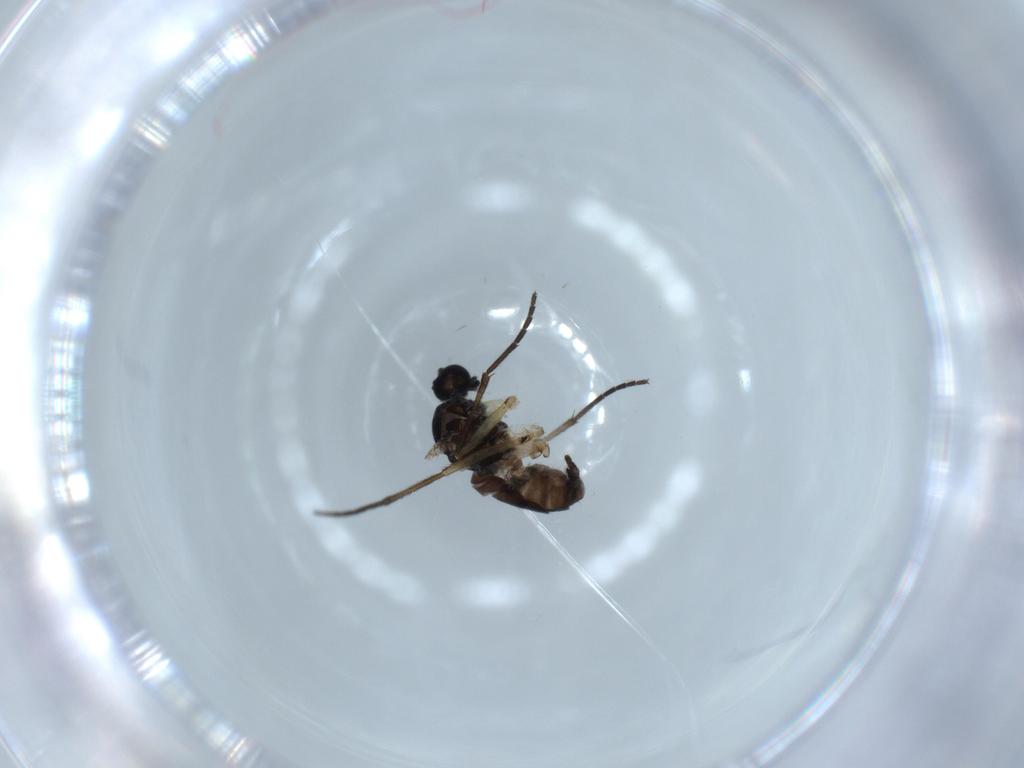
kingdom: Animalia
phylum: Arthropoda
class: Insecta
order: Diptera
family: Sciaridae
